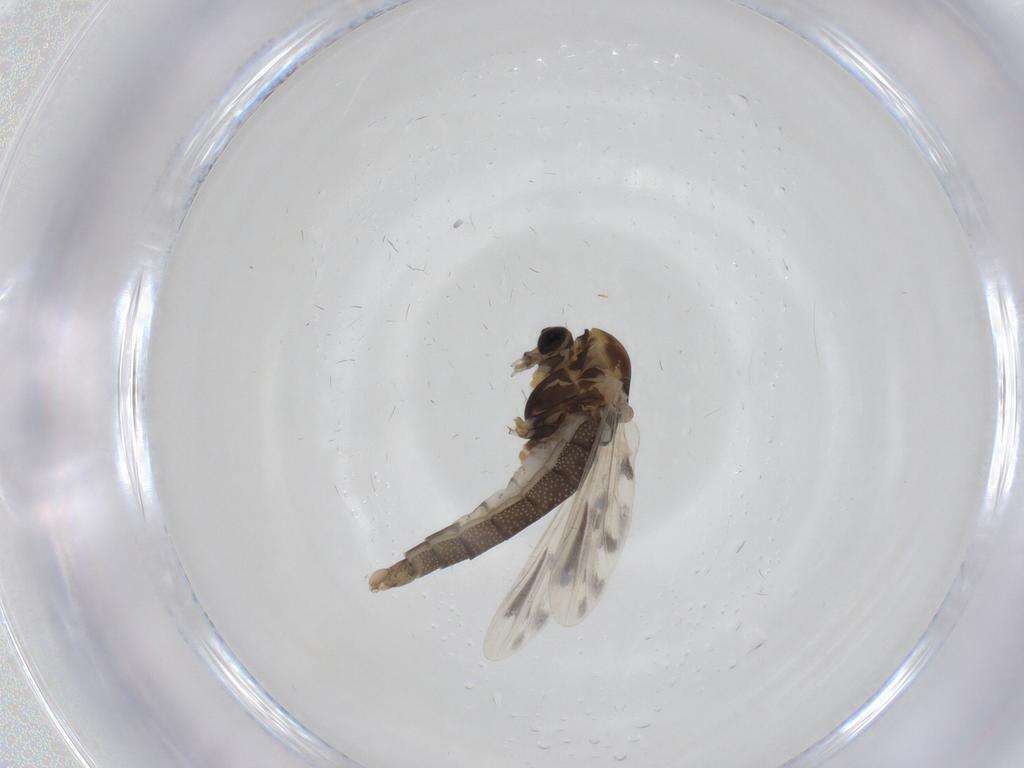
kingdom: Animalia
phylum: Arthropoda
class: Insecta
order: Diptera
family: Chironomidae
